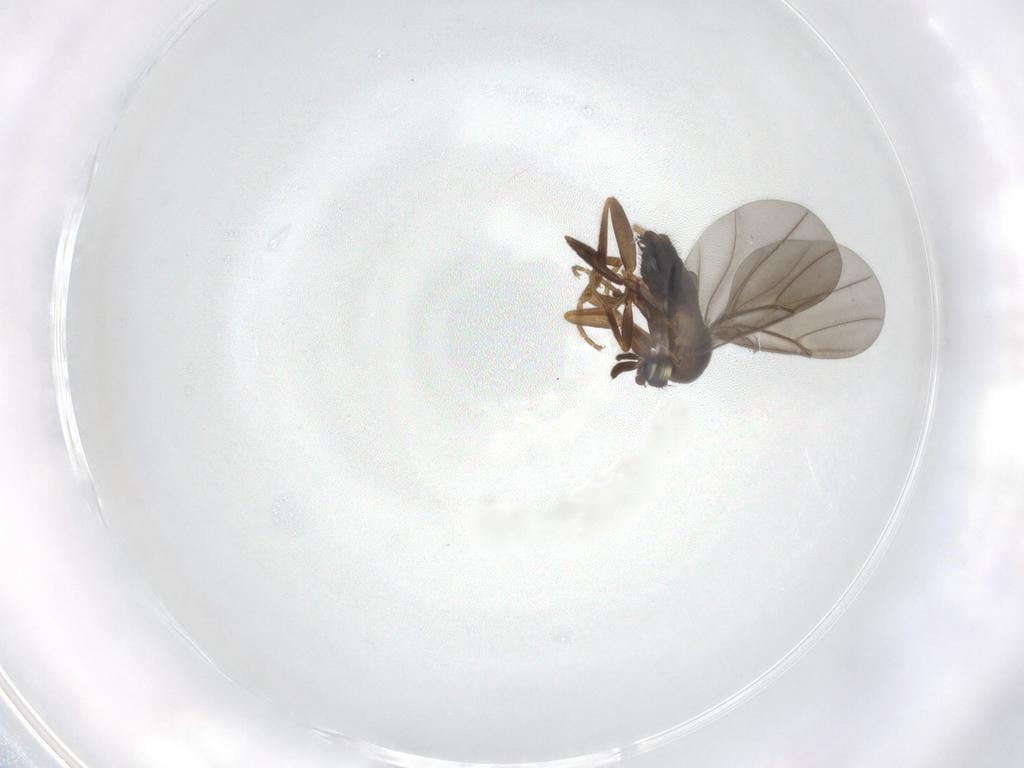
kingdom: Animalia
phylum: Arthropoda
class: Insecta
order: Diptera
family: Phoridae
